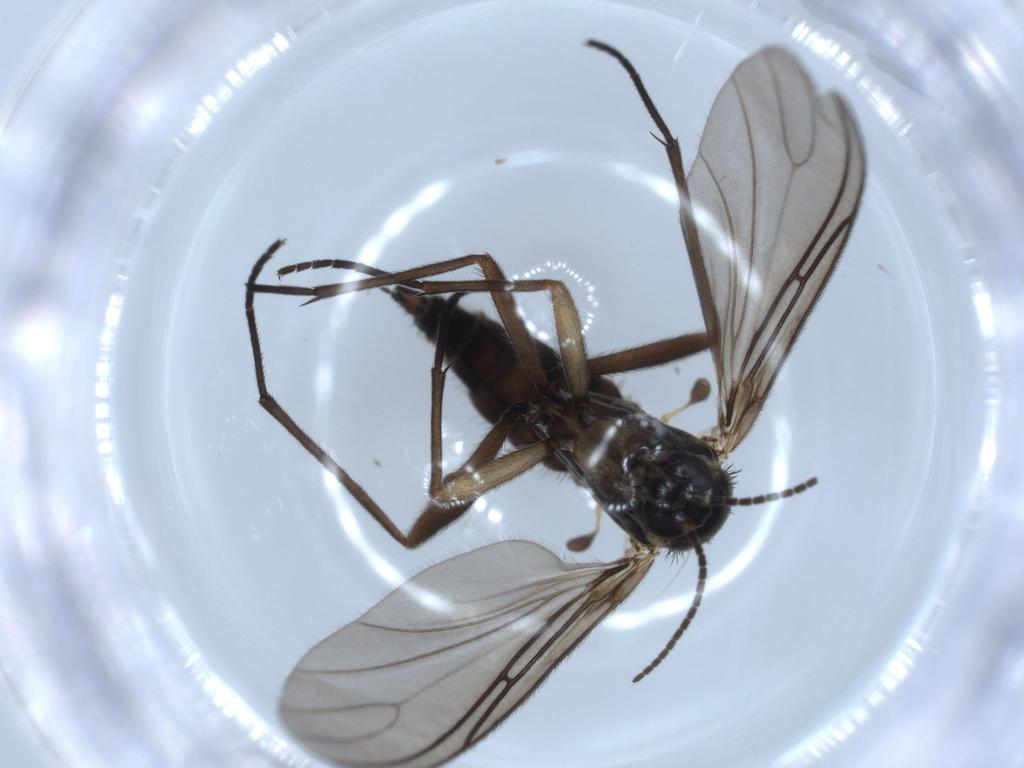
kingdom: Animalia
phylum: Arthropoda
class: Insecta
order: Diptera
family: Sciaridae
